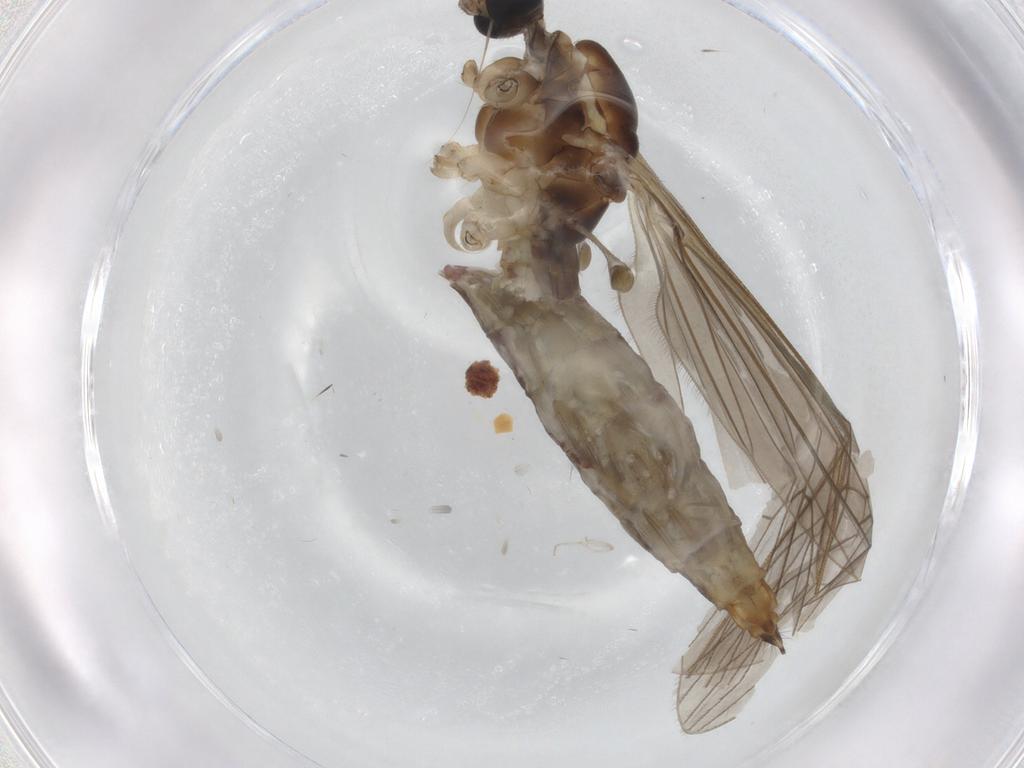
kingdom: Animalia
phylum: Arthropoda
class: Insecta
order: Diptera
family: Limoniidae
